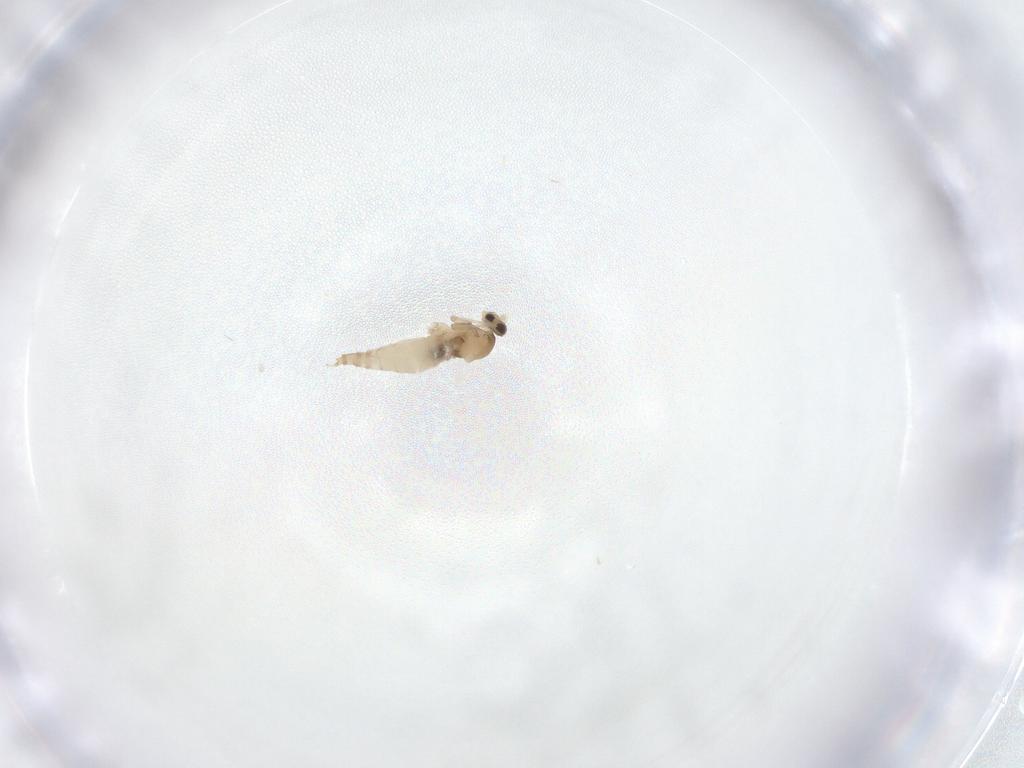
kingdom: Animalia
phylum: Arthropoda
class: Insecta
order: Diptera
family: Cecidomyiidae
